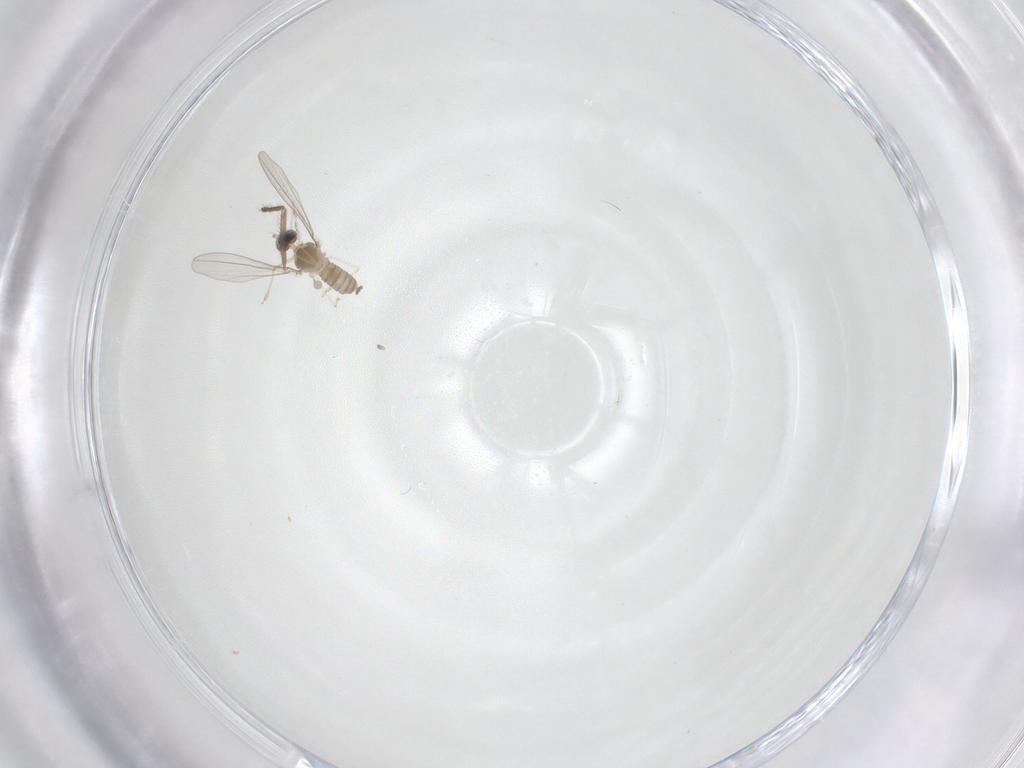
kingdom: Animalia
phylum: Arthropoda
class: Insecta
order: Diptera
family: Cecidomyiidae
